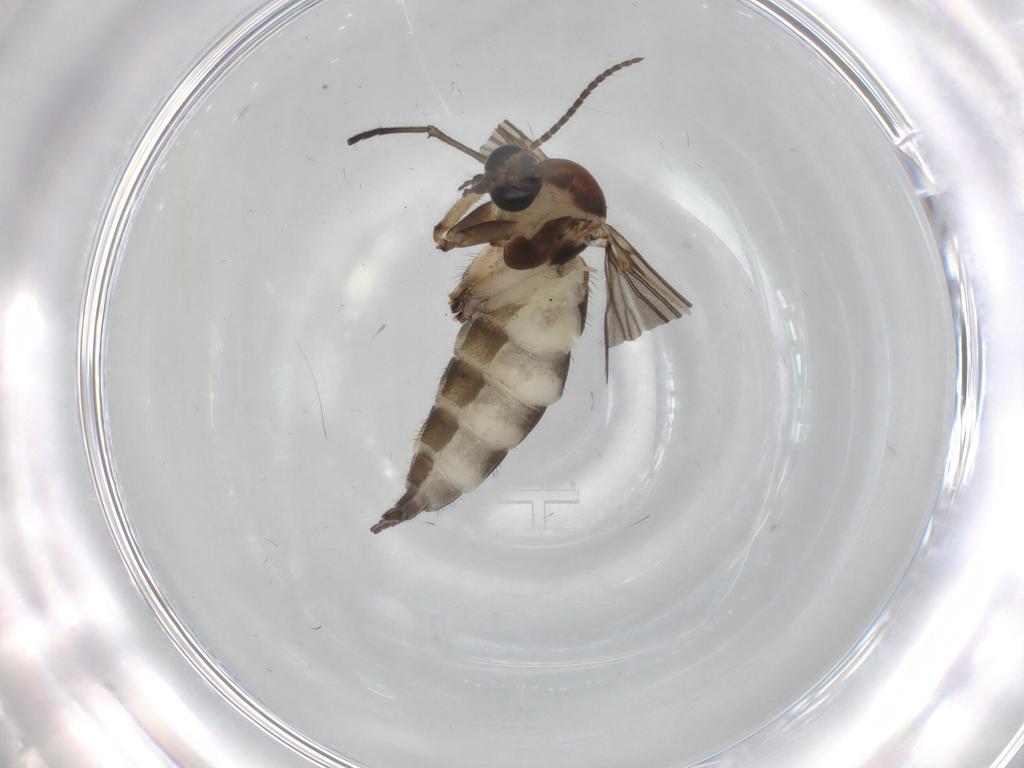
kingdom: Animalia
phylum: Arthropoda
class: Insecta
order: Diptera
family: Sciaridae
